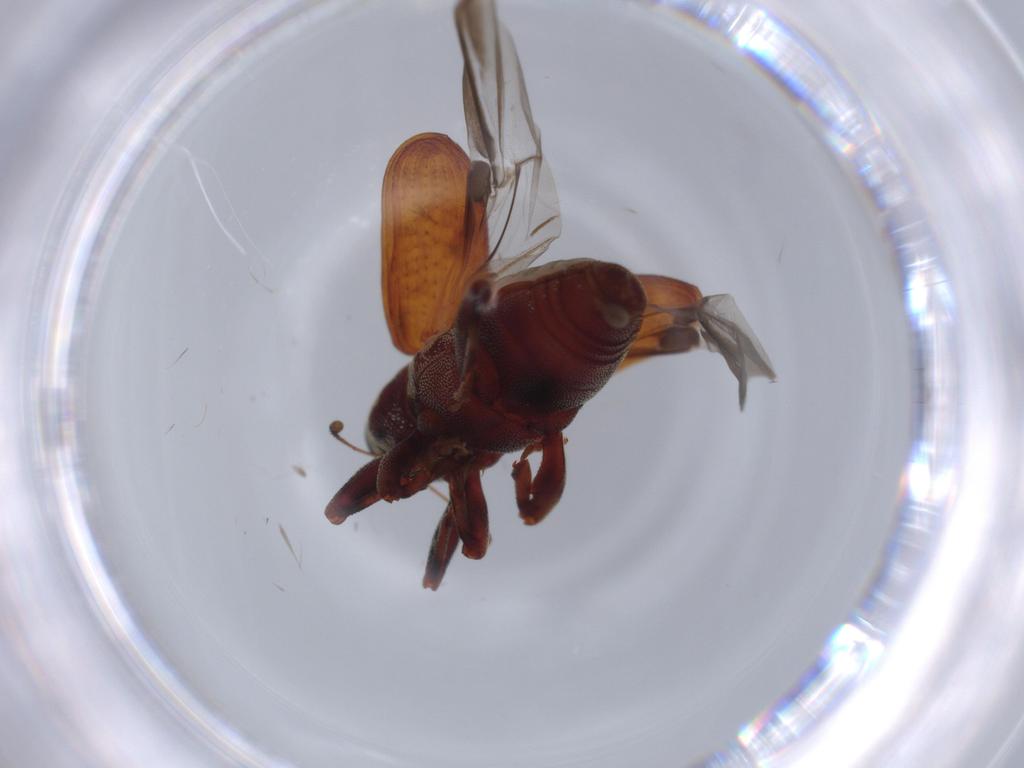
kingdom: Animalia
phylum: Arthropoda
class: Insecta
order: Coleoptera
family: Curculionidae
